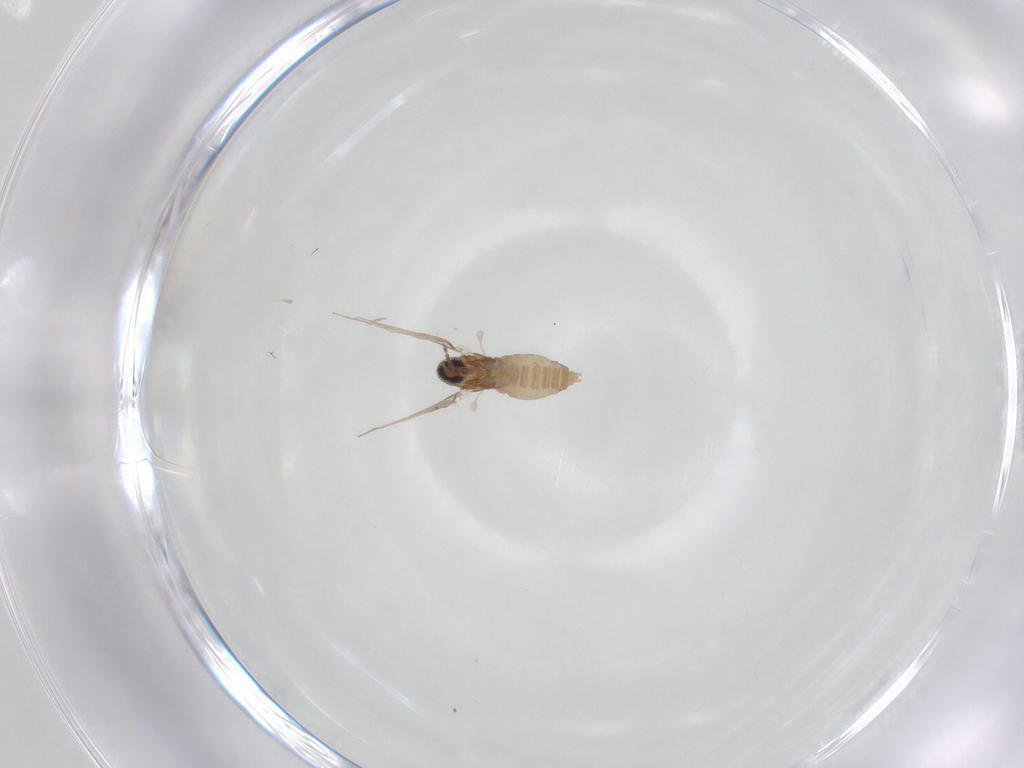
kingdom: Animalia
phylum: Arthropoda
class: Insecta
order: Diptera
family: Cecidomyiidae
